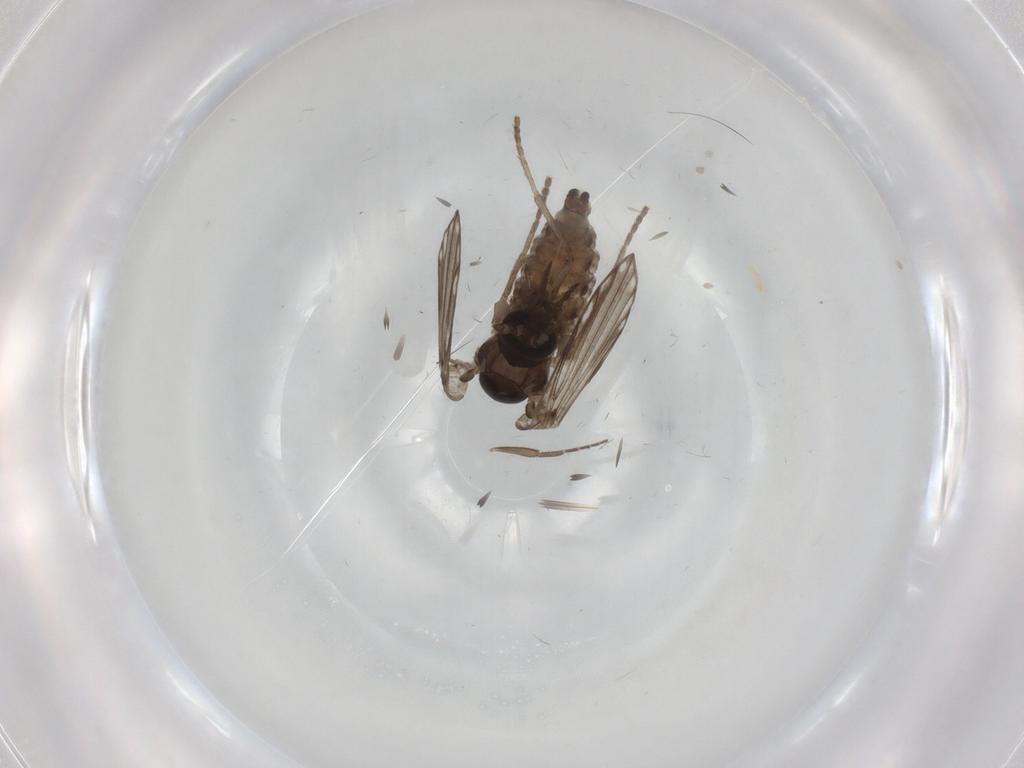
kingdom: Animalia
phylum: Arthropoda
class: Insecta
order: Diptera
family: Psychodidae
